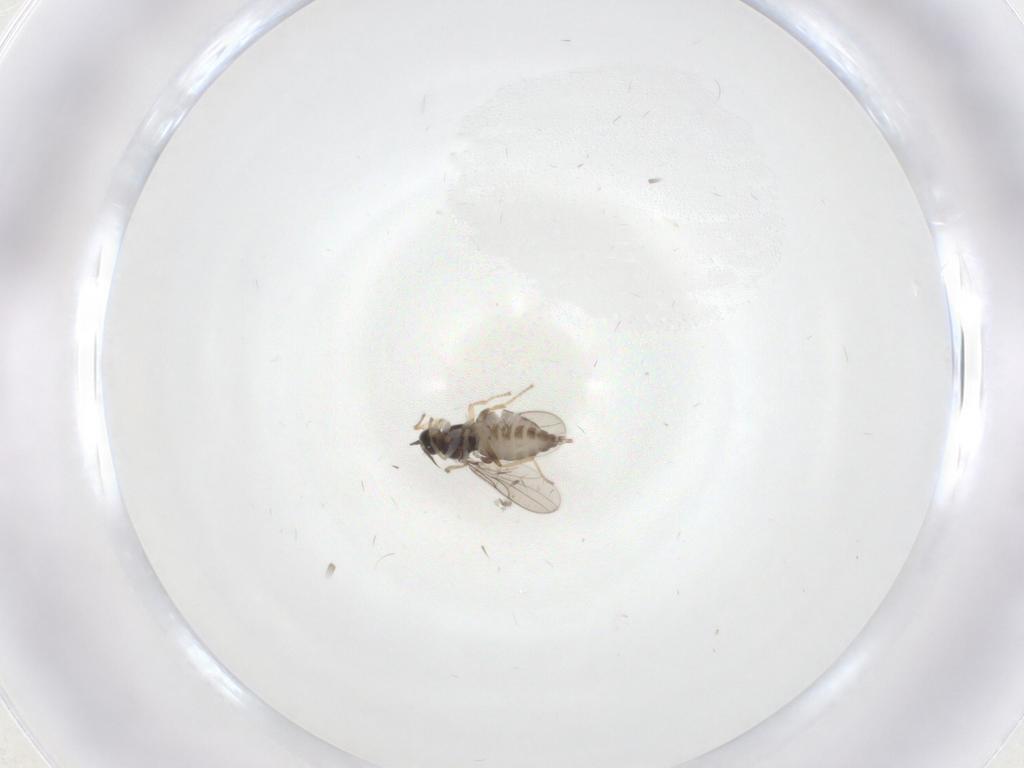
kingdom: Animalia
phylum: Arthropoda
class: Insecta
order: Diptera
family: Hybotidae
